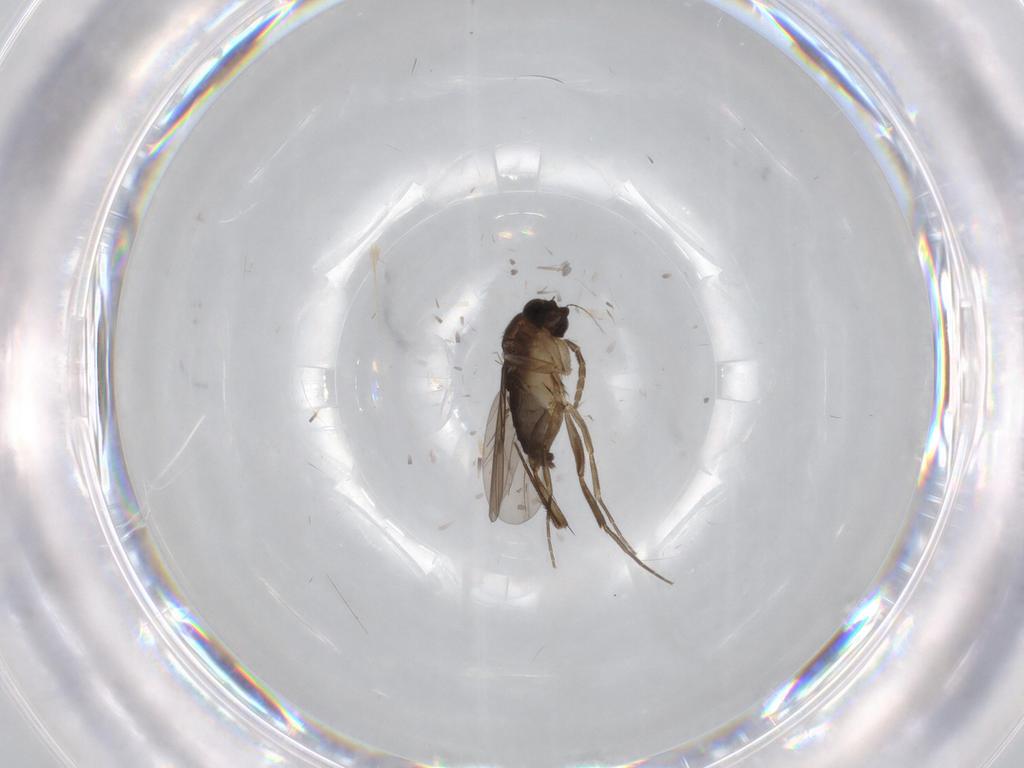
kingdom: Animalia
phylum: Arthropoda
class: Insecta
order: Diptera
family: Phoridae
